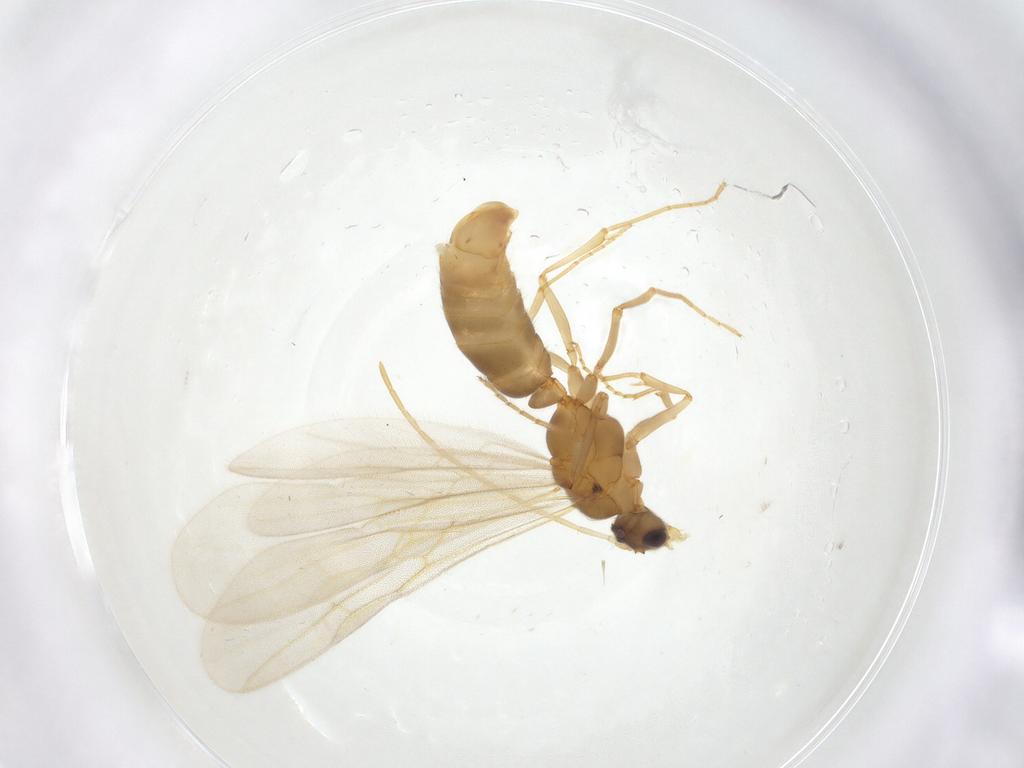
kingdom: Animalia
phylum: Arthropoda
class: Insecta
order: Hymenoptera
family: Formicidae
